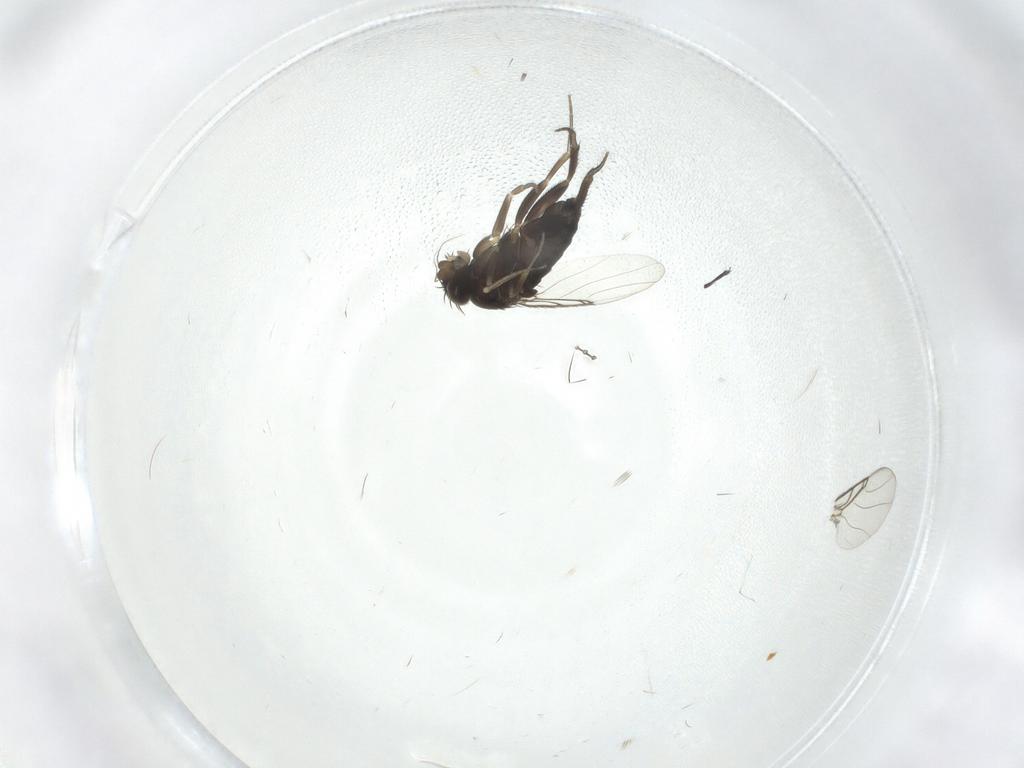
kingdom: Animalia
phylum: Arthropoda
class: Insecta
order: Diptera
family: Phoridae
